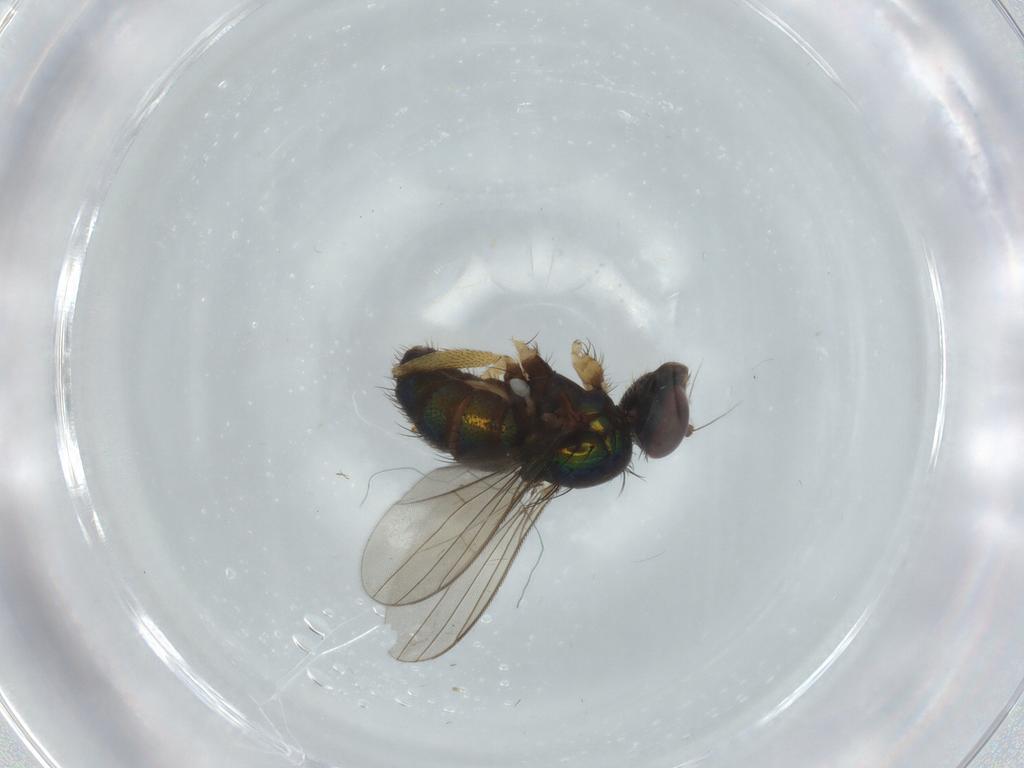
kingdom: Animalia
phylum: Arthropoda
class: Insecta
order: Diptera
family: Dolichopodidae
